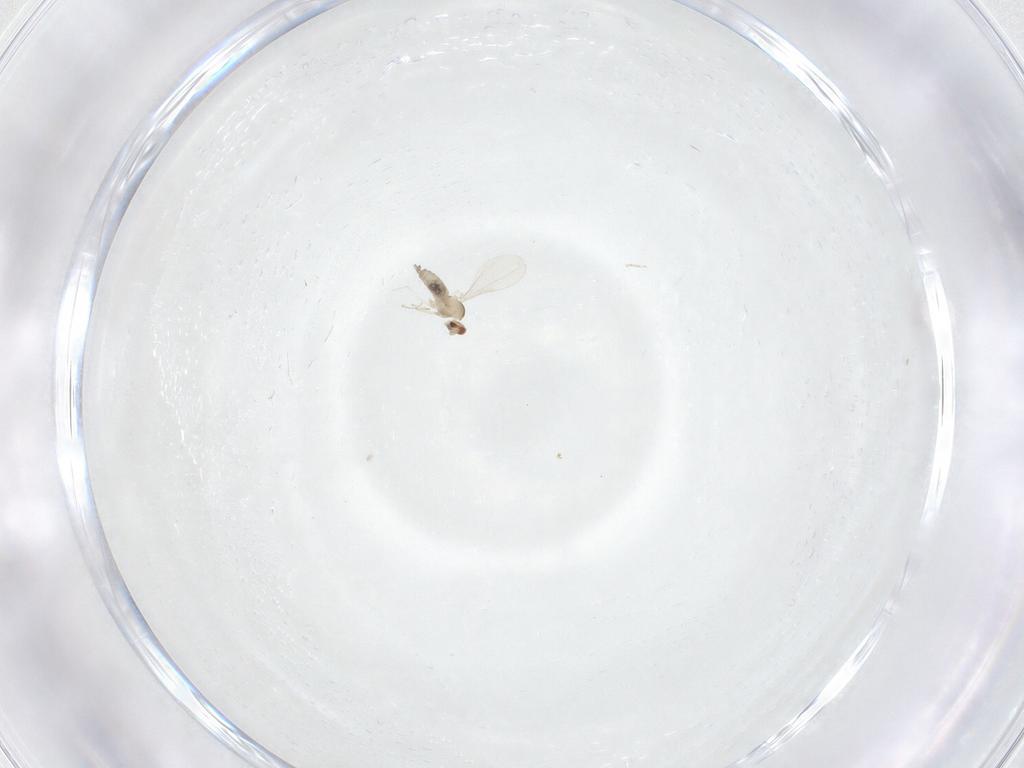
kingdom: Animalia
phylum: Arthropoda
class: Insecta
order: Diptera
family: Cecidomyiidae
